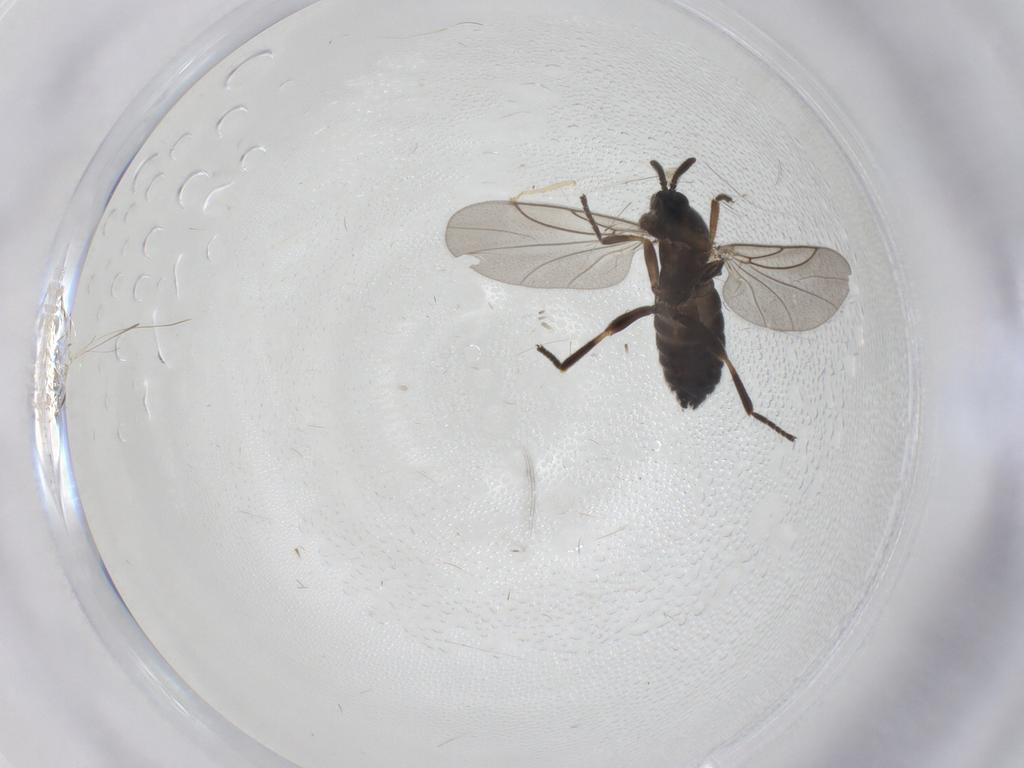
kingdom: Animalia
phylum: Arthropoda
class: Insecta
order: Diptera
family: Scatopsidae
